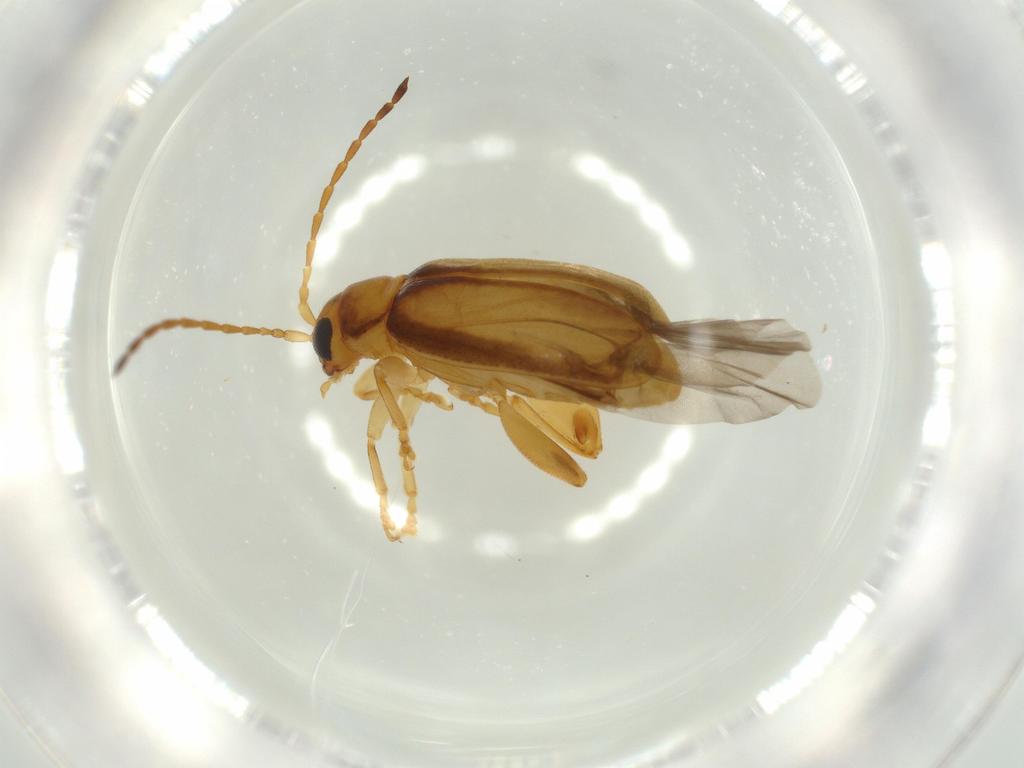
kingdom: Animalia
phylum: Arthropoda
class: Insecta
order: Coleoptera
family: Chrysomelidae
